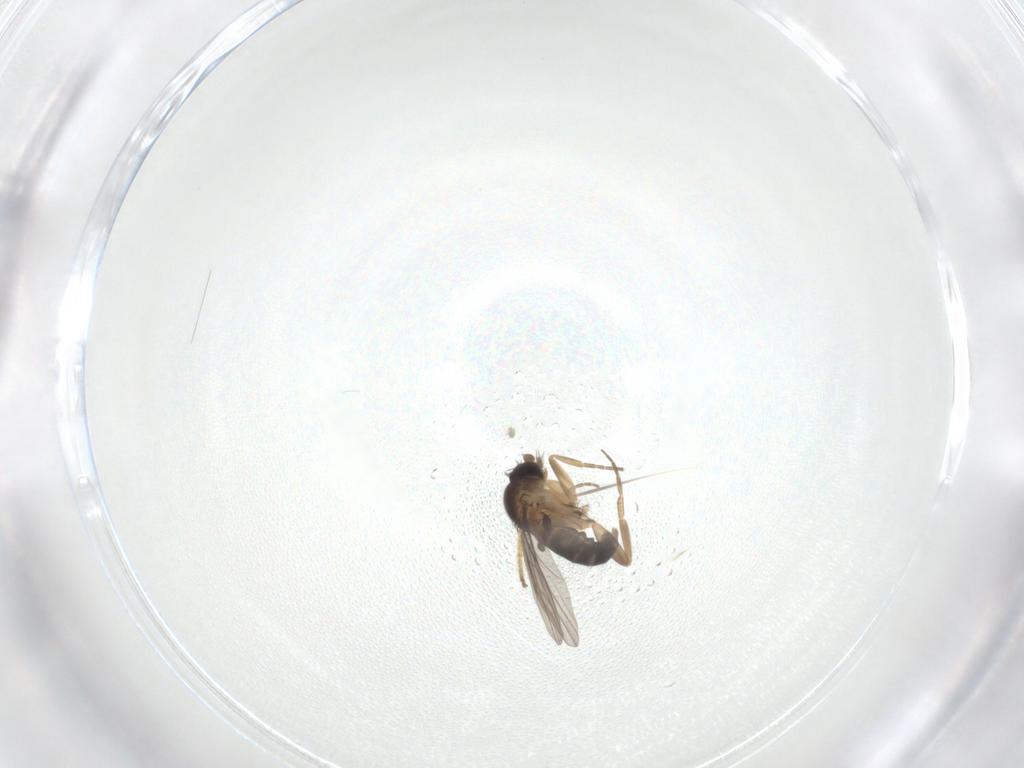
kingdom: Animalia
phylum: Arthropoda
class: Insecta
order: Diptera
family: Ceratopogonidae
